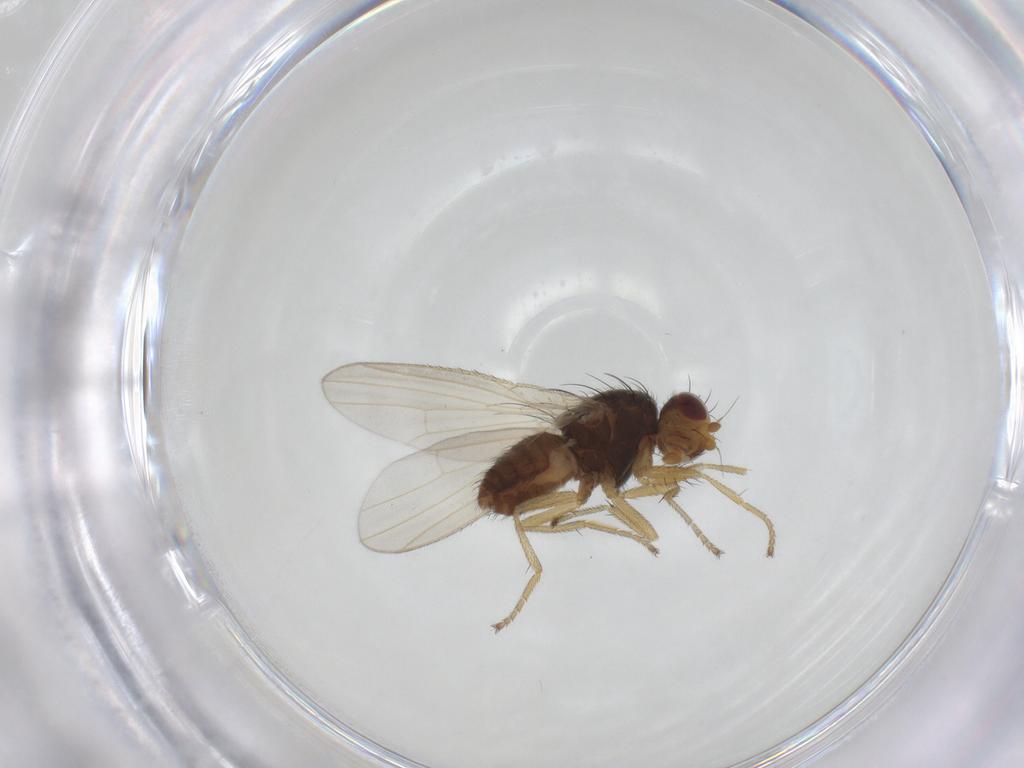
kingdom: Animalia
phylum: Arthropoda
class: Insecta
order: Diptera
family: Heleomyzidae
